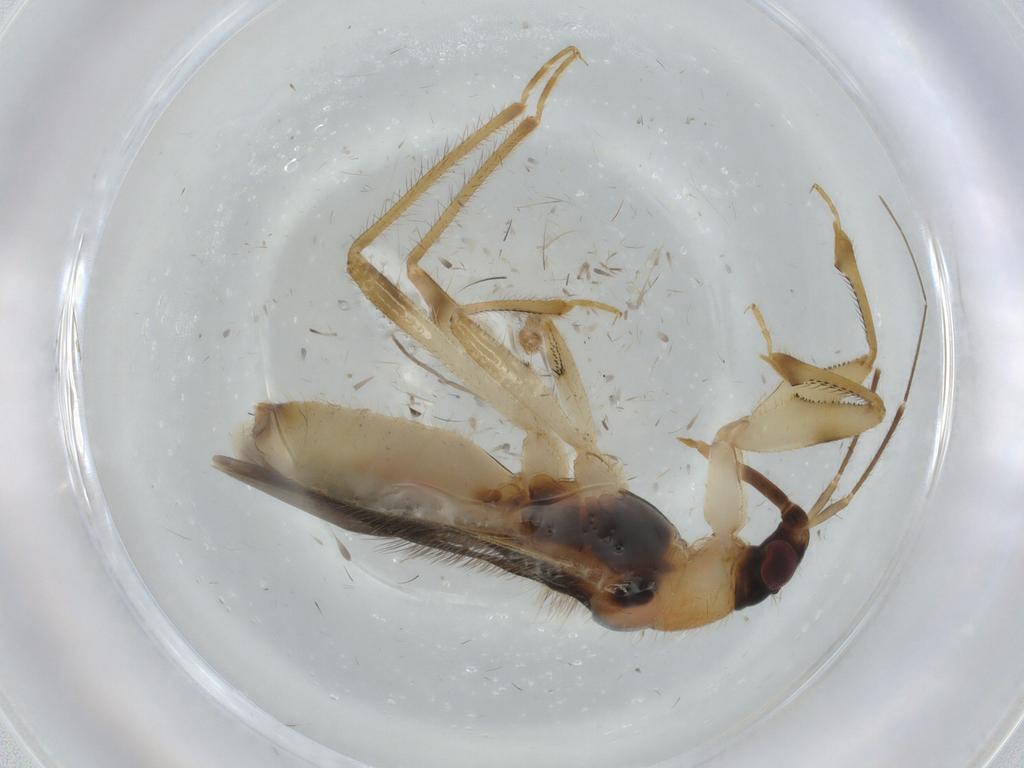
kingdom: Animalia
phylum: Arthropoda
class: Insecta
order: Hemiptera
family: Nabidae
